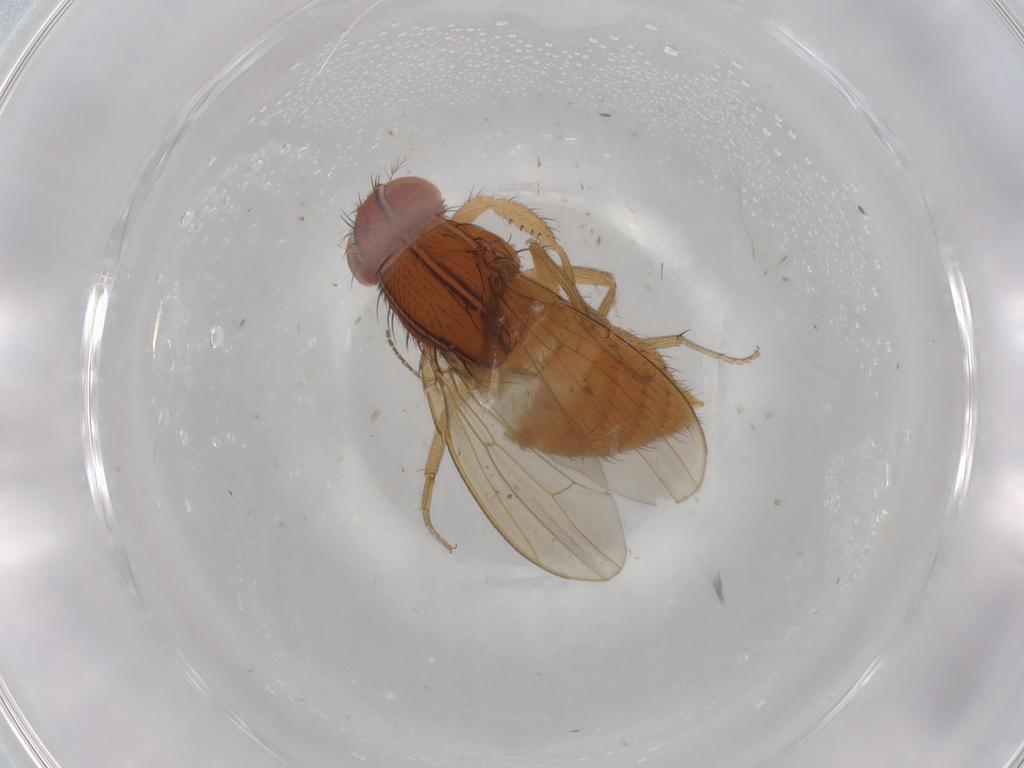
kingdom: Animalia
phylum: Arthropoda
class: Insecta
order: Diptera
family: Drosophilidae
